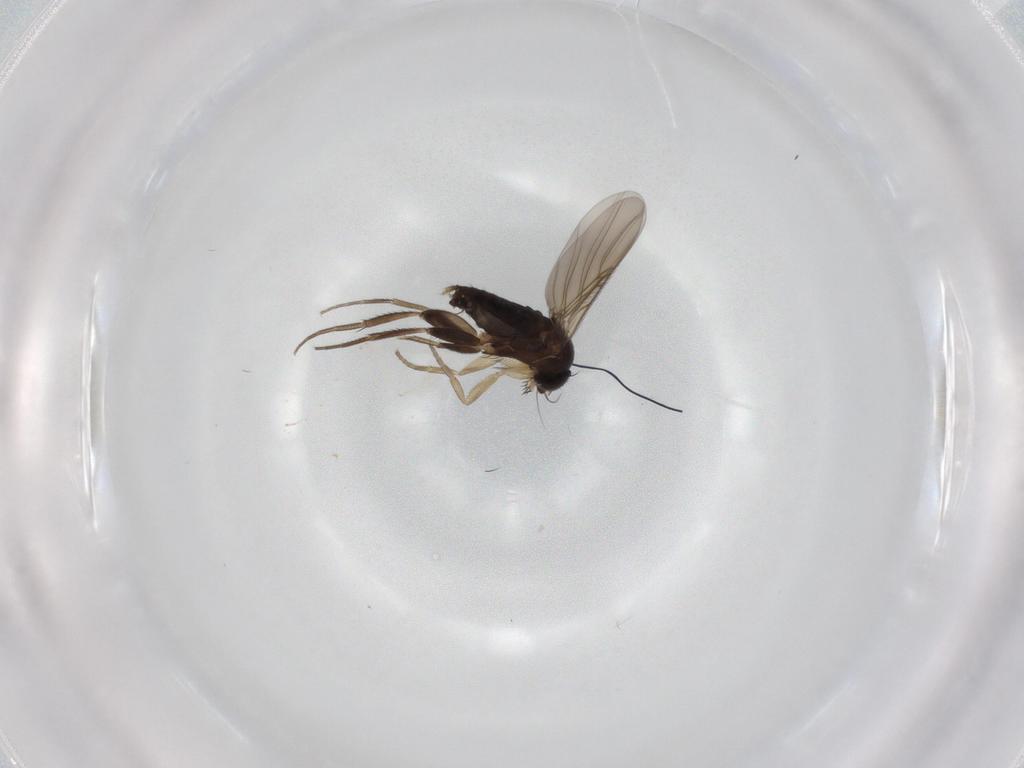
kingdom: Animalia
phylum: Arthropoda
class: Insecta
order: Diptera
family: Phoridae
